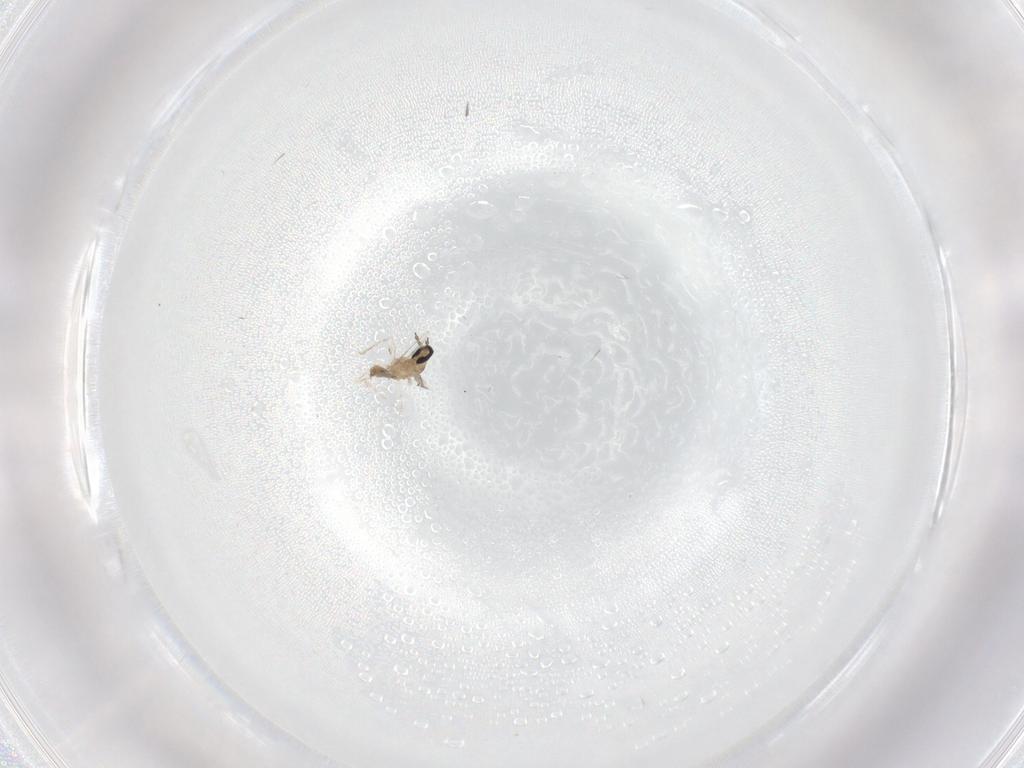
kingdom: Animalia
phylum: Arthropoda
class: Insecta
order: Diptera
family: Cecidomyiidae
